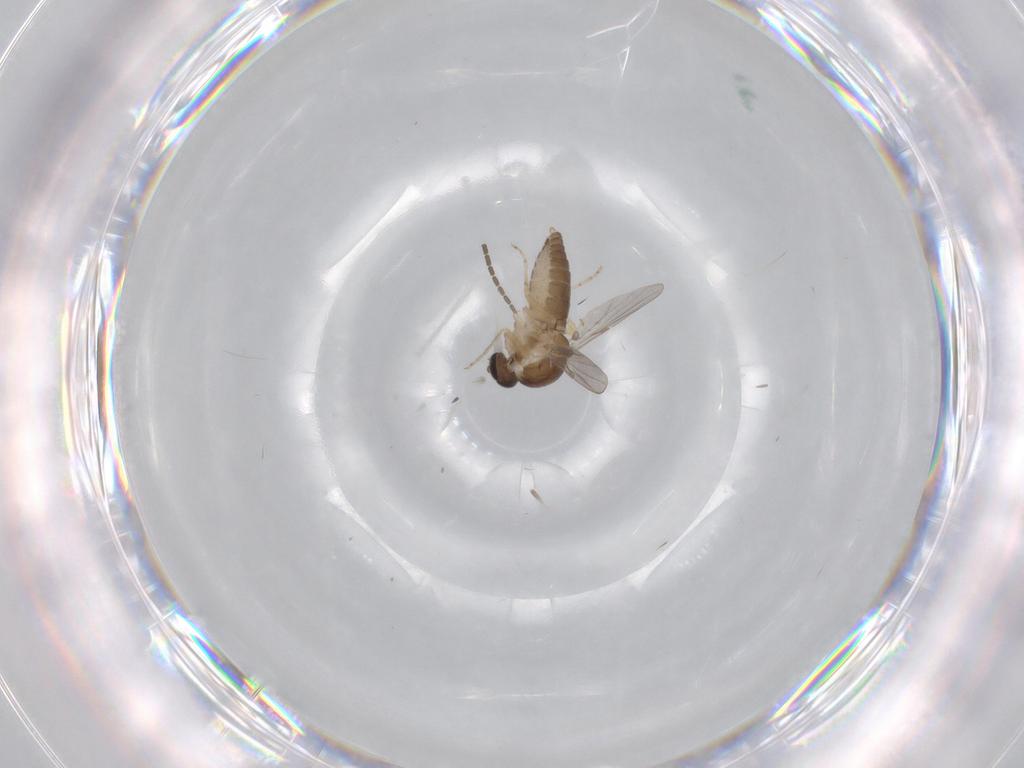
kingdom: Animalia
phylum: Arthropoda
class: Insecta
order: Diptera
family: Ceratopogonidae
